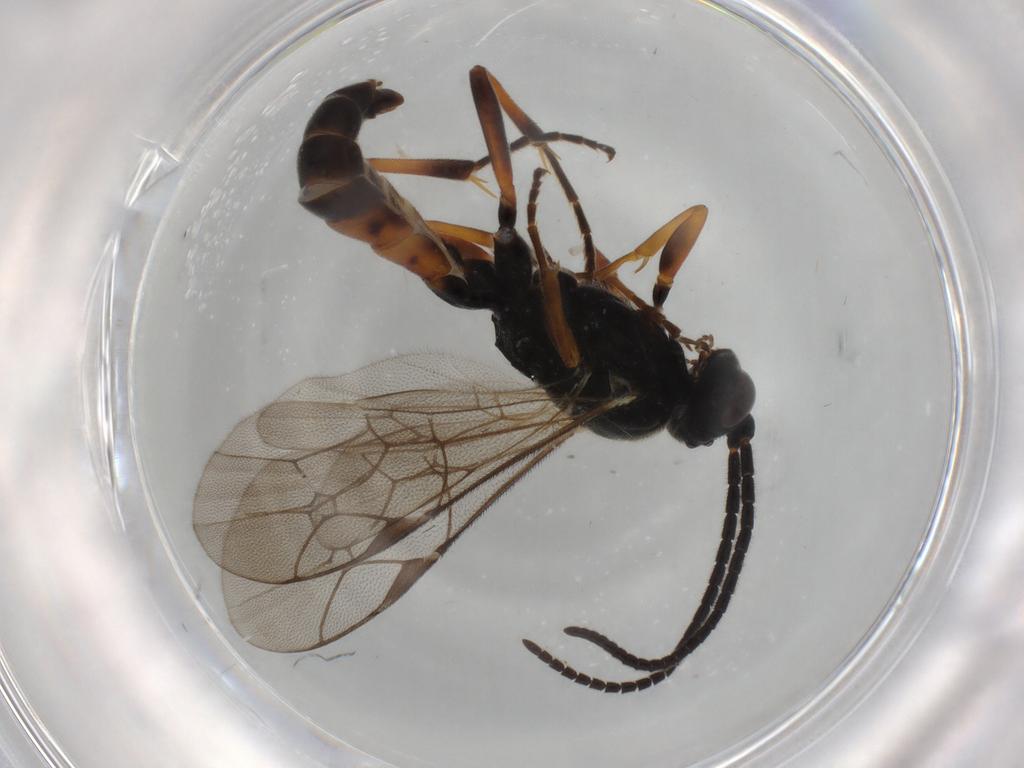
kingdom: Animalia
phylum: Arthropoda
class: Insecta
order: Hymenoptera
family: Ichneumonidae
